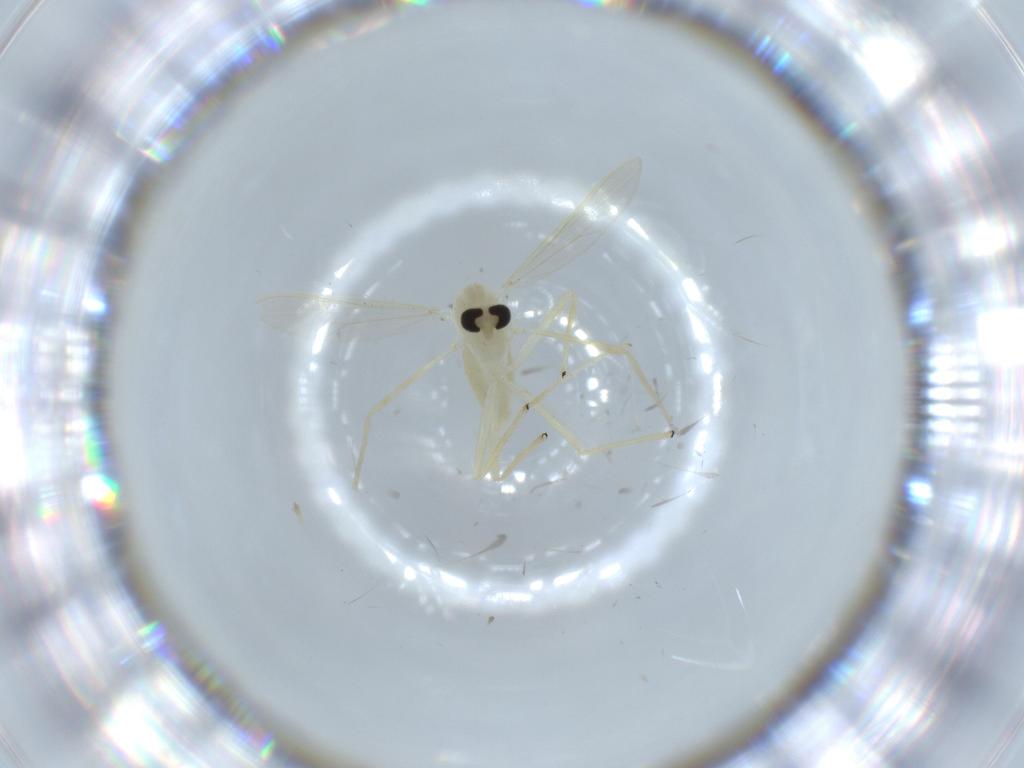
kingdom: Animalia
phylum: Arthropoda
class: Insecta
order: Diptera
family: Chironomidae
